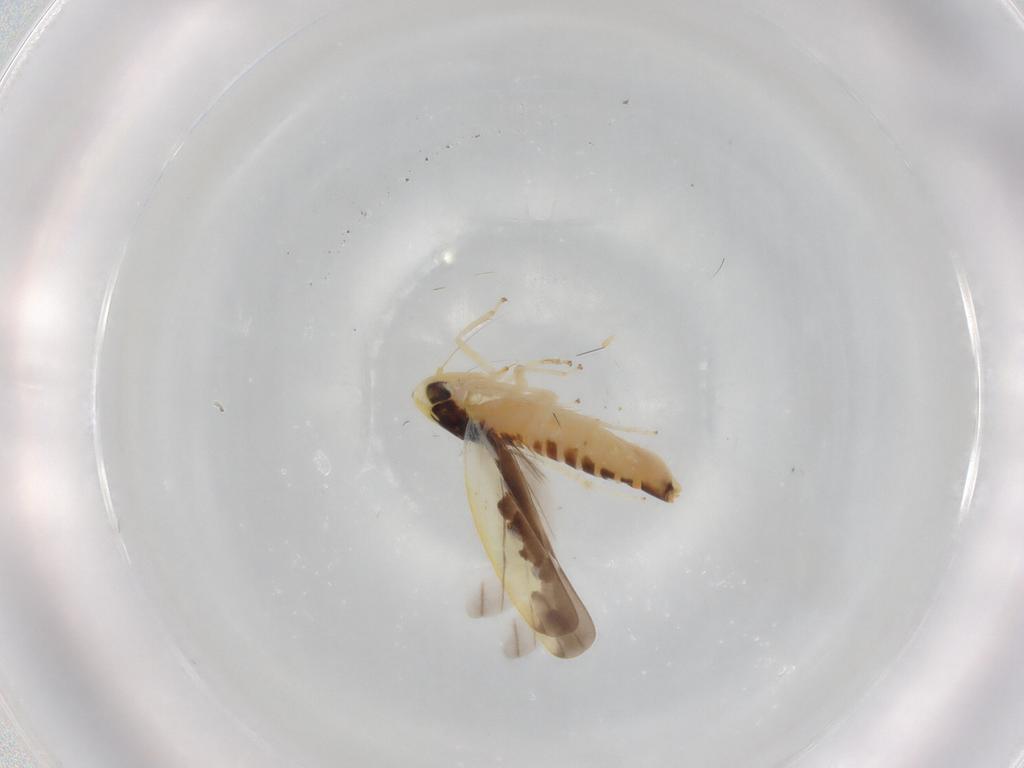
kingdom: Animalia
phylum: Arthropoda
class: Insecta
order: Hemiptera
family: Cicadellidae
